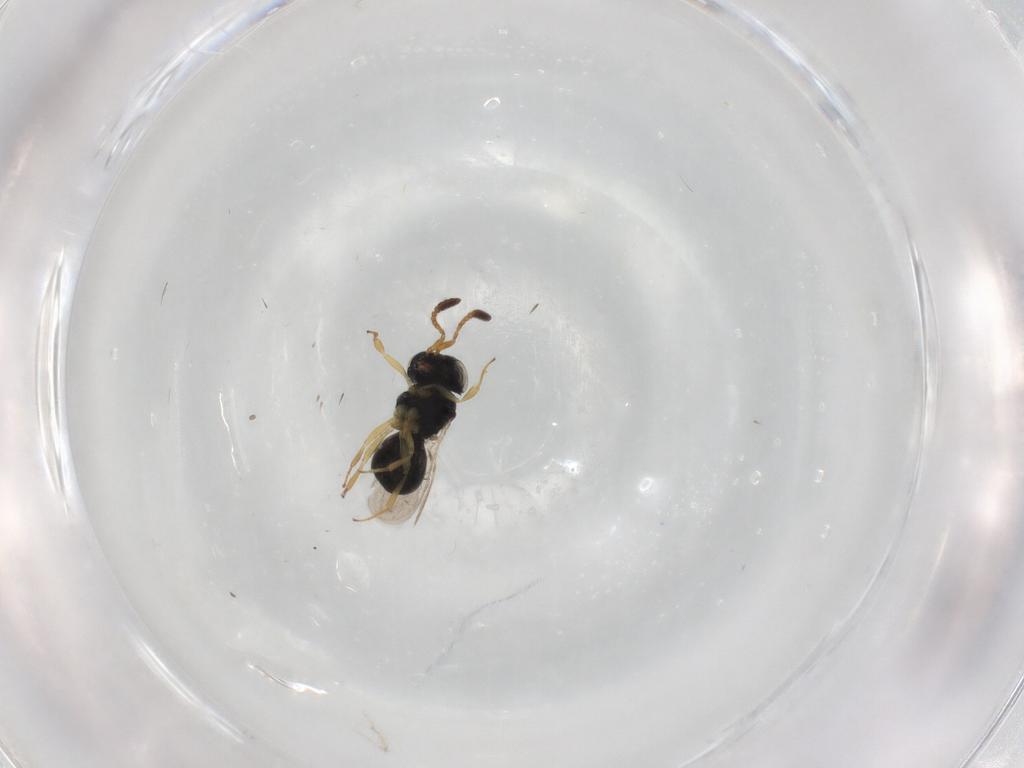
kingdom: Animalia
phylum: Arthropoda
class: Insecta
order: Hymenoptera
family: Scelionidae
